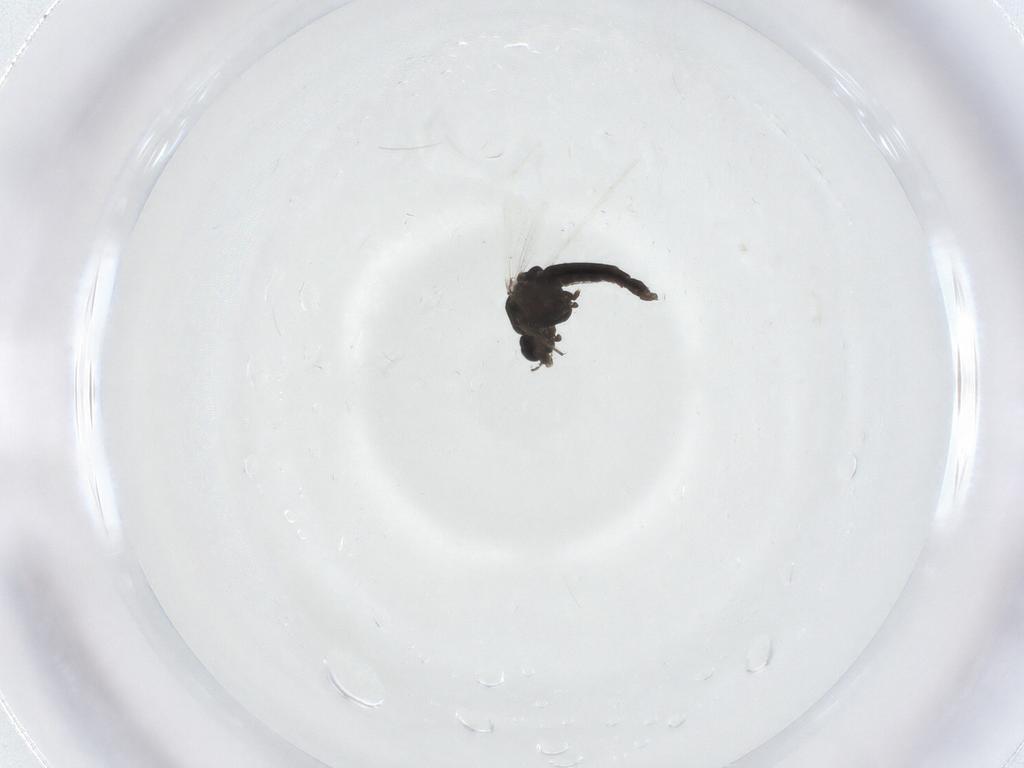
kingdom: Animalia
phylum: Arthropoda
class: Insecta
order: Diptera
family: Chironomidae
